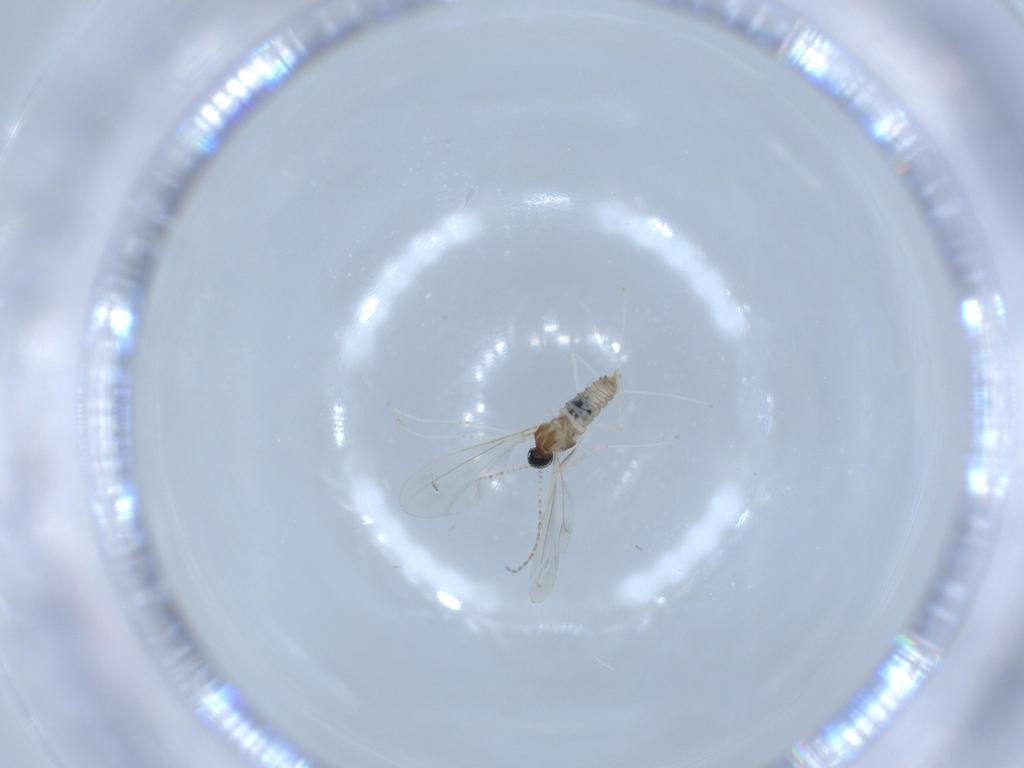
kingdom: Animalia
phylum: Arthropoda
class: Insecta
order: Diptera
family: Cecidomyiidae
